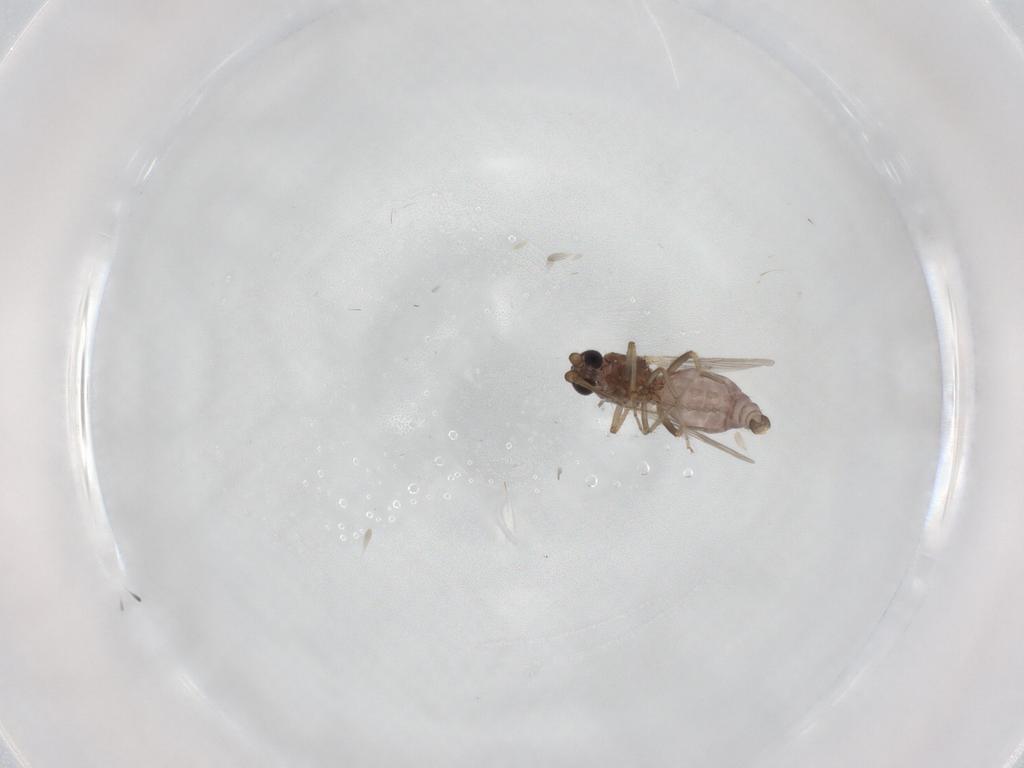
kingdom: Animalia
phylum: Arthropoda
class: Insecta
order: Diptera
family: Ceratopogonidae
